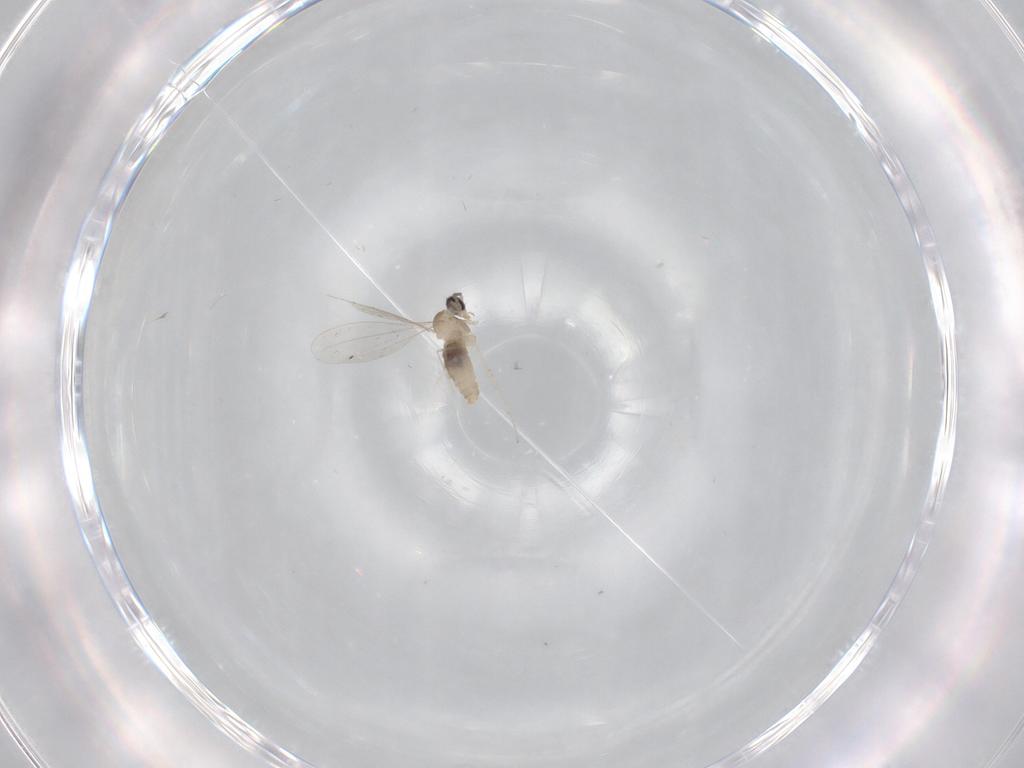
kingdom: Animalia
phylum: Arthropoda
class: Insecta
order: Diptera
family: Cecidomyiidae
